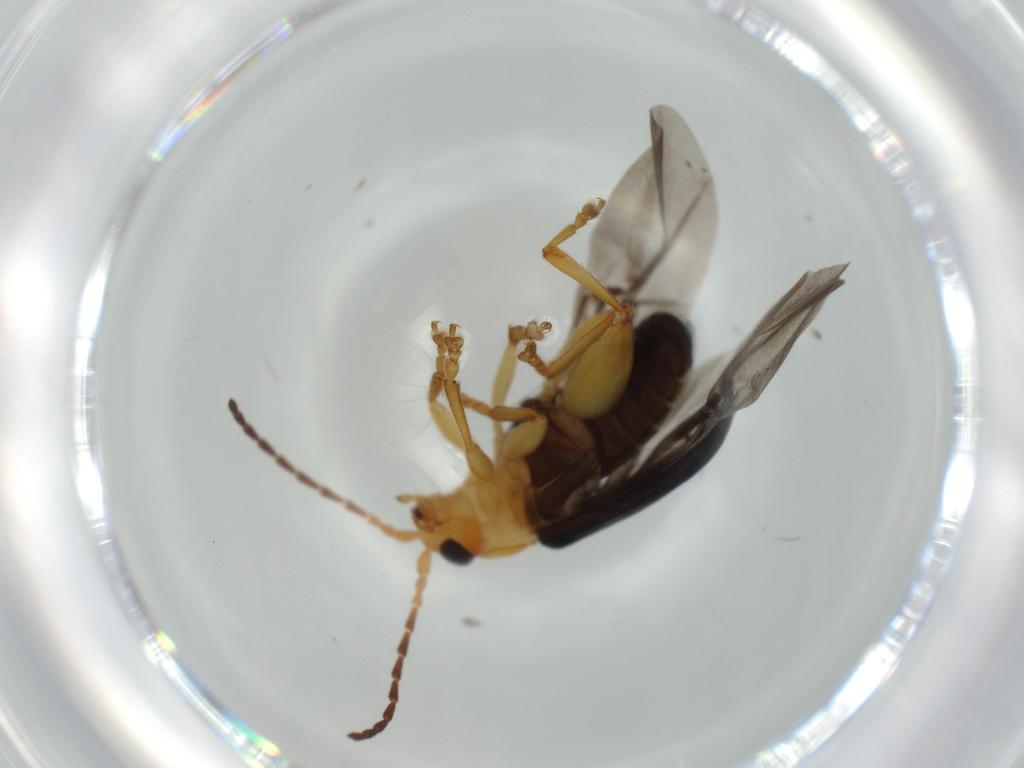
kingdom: Animalia
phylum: Arthropoda
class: Insecta
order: Coleoptera
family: Chrysomelidae
